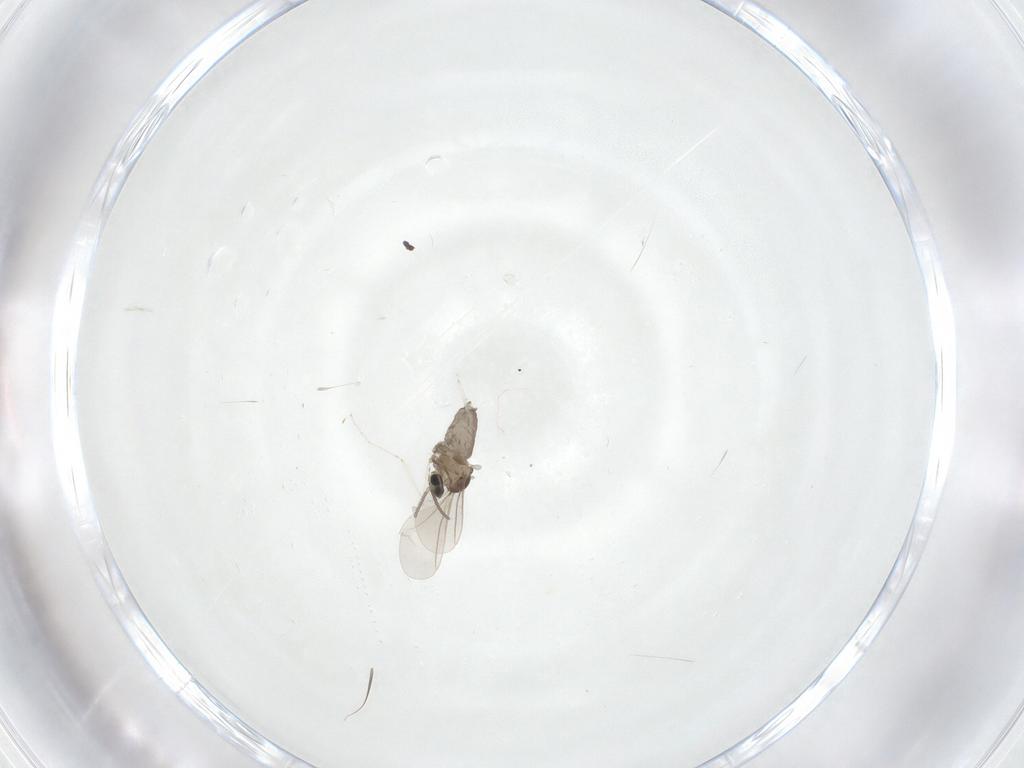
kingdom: Animalia
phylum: Arthropoda
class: Insecta
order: Diptera
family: Cecidomyiidae
